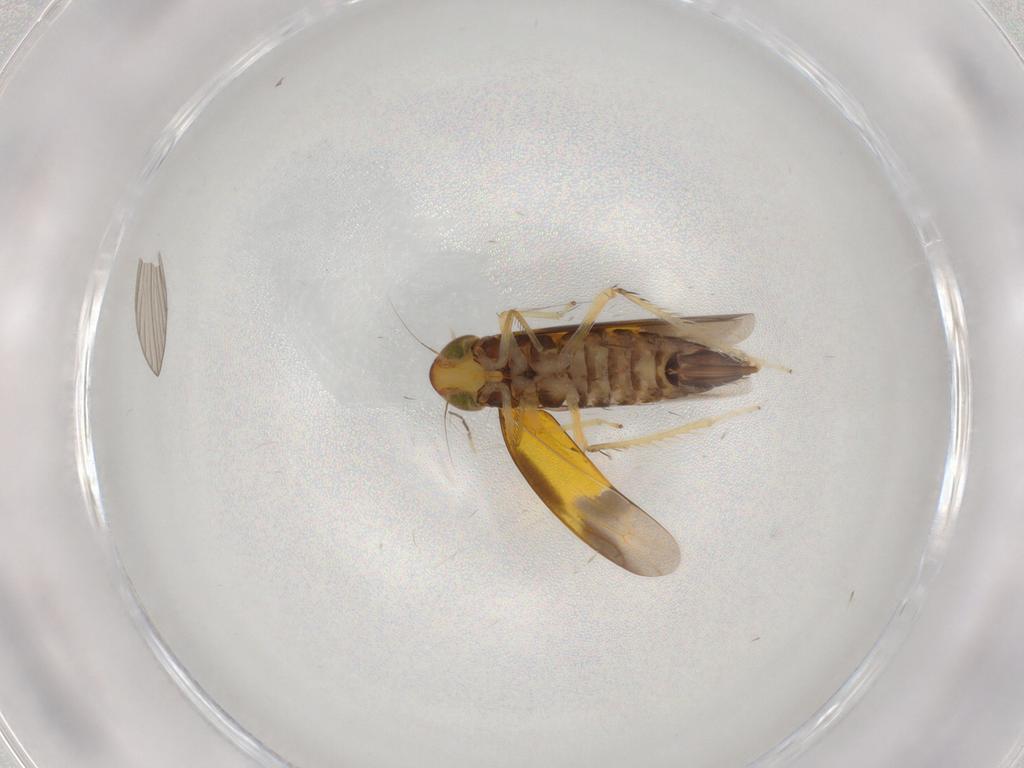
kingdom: Animalia
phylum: Arthropoda
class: Insecta
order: Hemiptera
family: Cicadellidae
